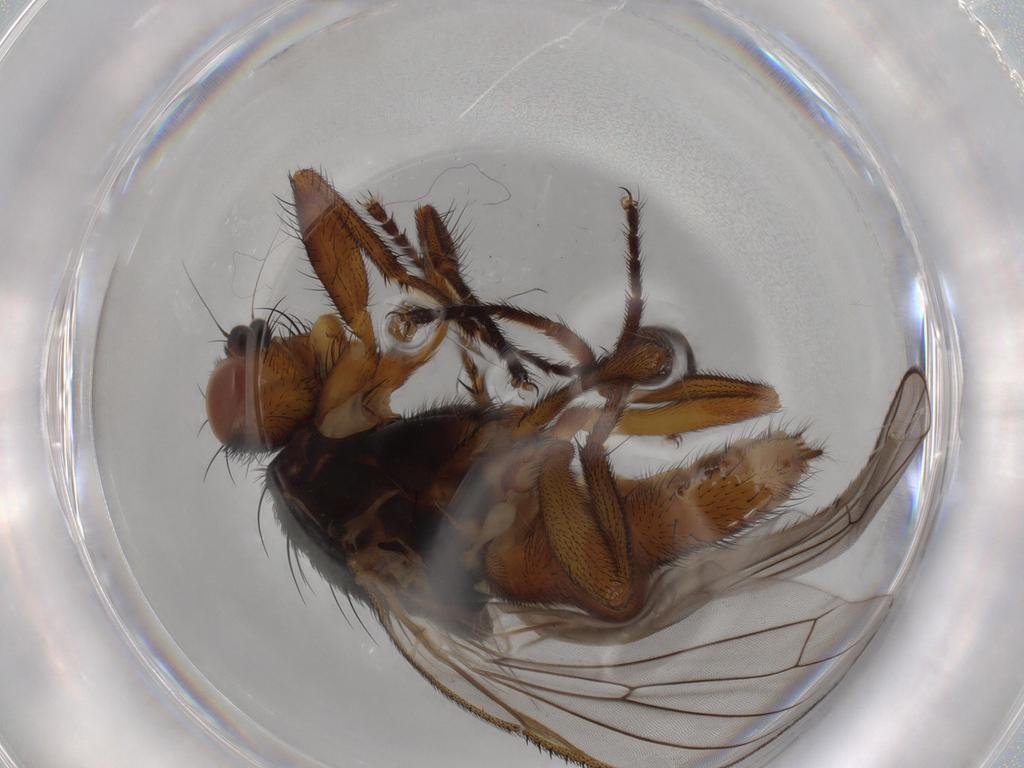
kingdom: Animalia
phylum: Arthropoda
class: Insecta
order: Diptera
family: Heleomyzidae
